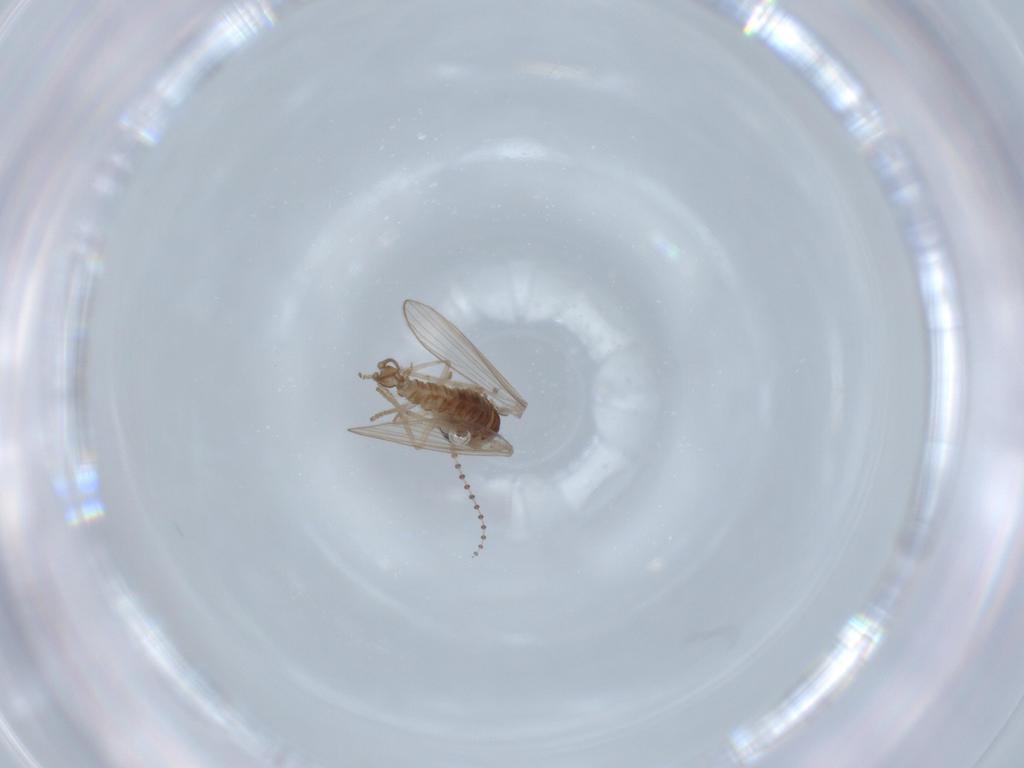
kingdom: Animalia
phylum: Arthropoda
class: Insecta
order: Diptera
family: Psychodidae
